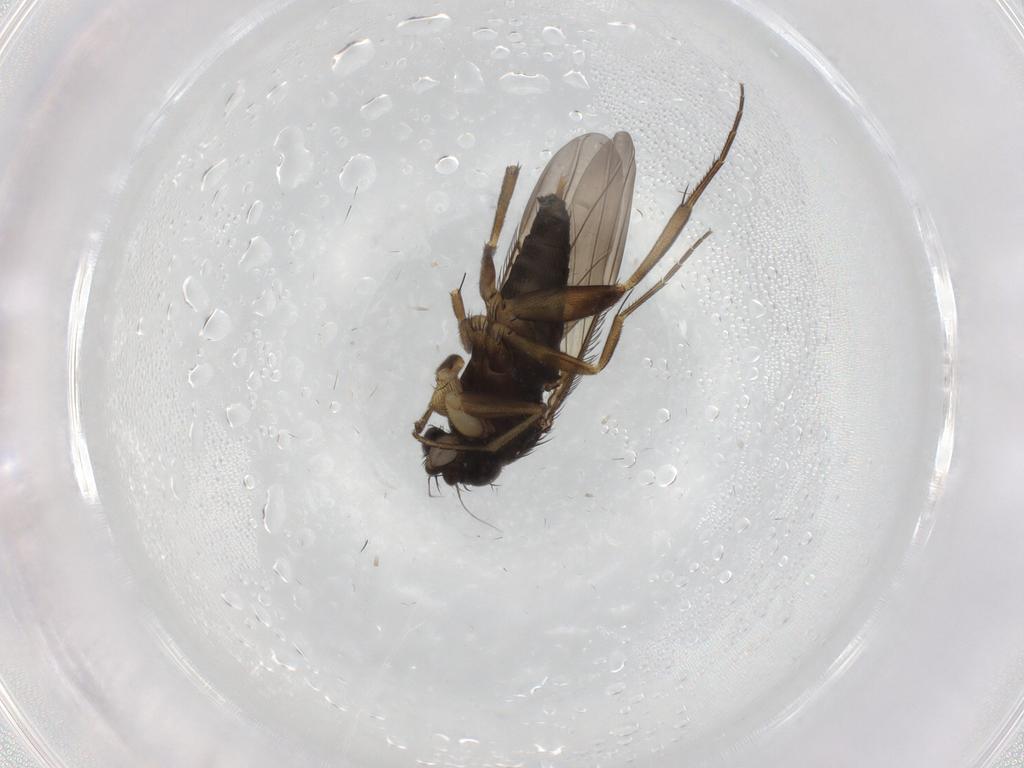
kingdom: Animalia
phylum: Arthropoda
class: Insecta
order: Diptera
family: Phoridae
